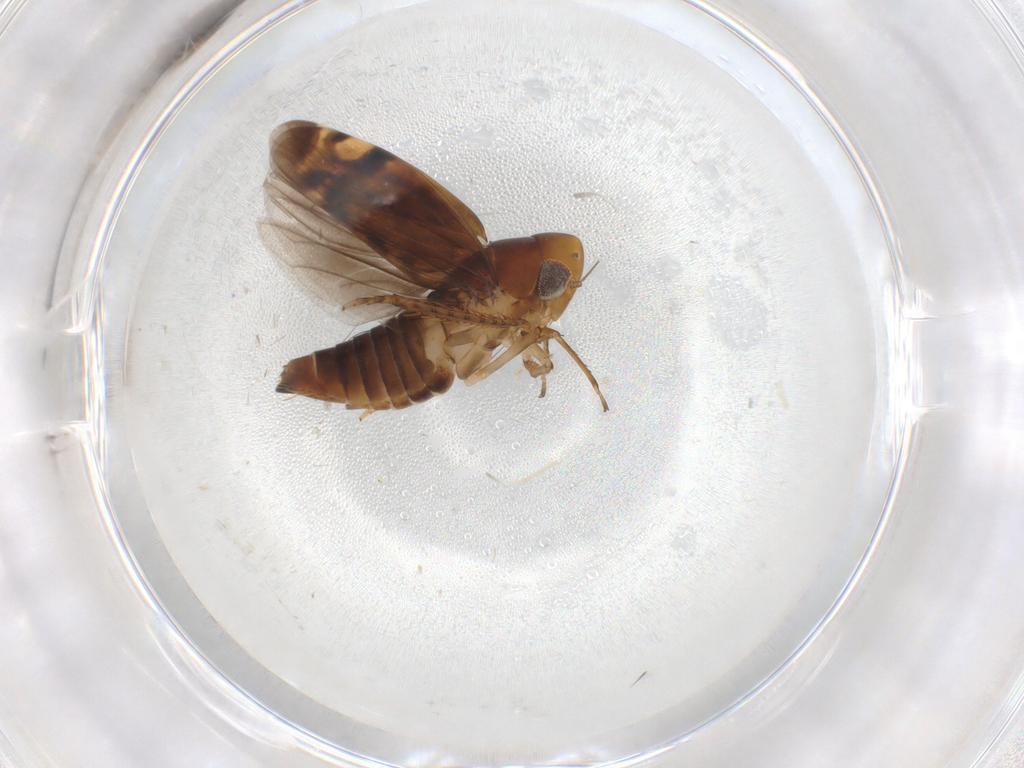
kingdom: Animalia
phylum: Arthropoda
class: Insecta
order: Hemiptera
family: Cicadellidae
